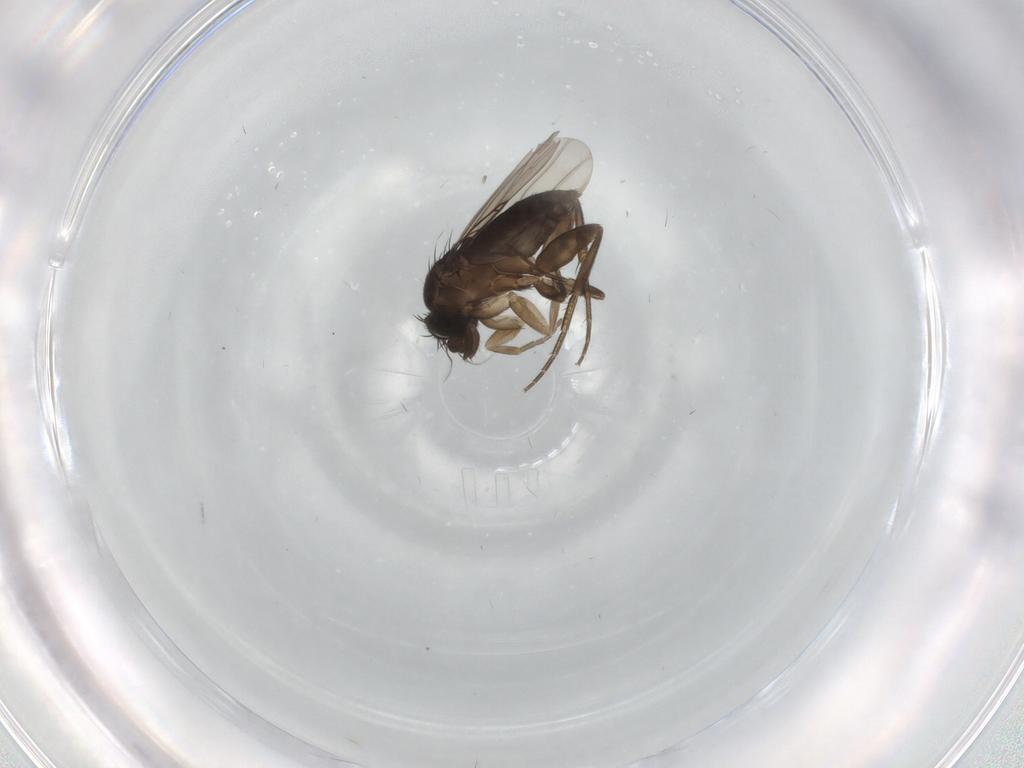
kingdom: Animalia
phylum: Arthropoda
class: Insecta
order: Diptera
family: Phoridae
